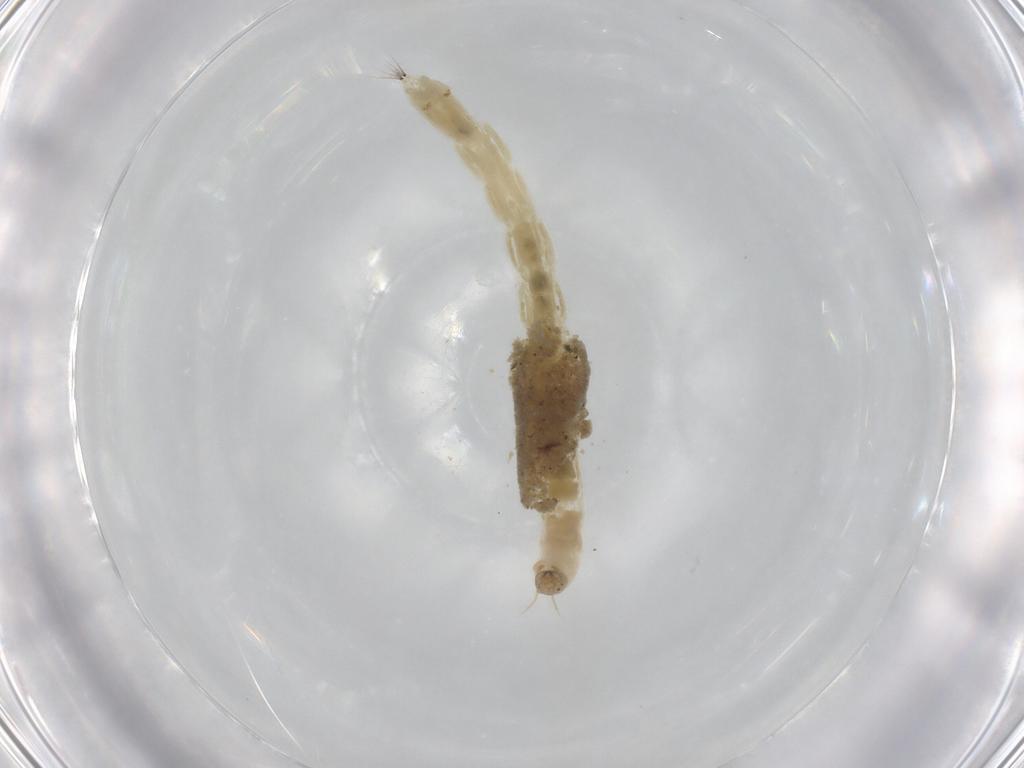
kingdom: Animalia
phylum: Arthropoda
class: Insecta
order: Diptera
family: Chironomidae
